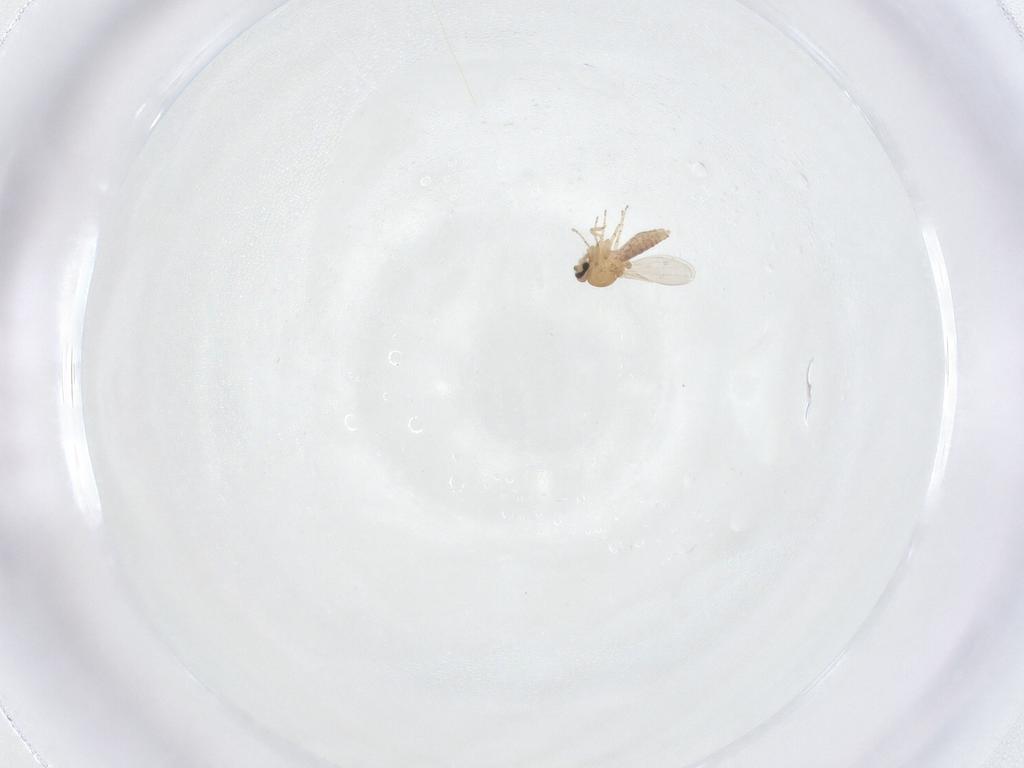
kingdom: Animalia
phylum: Arthropoda
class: Insecta
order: Diptera
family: Ceratopogonidae
